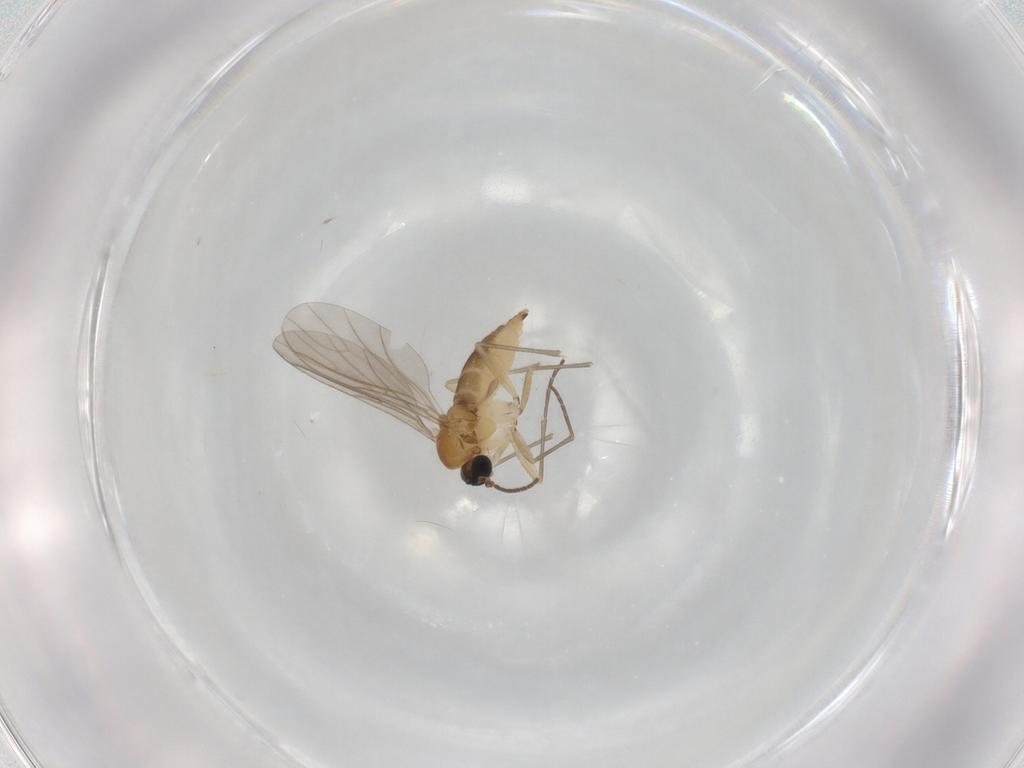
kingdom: Animalia
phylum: Arthropoda
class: Insecta
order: Diptera
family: Sciaridae
